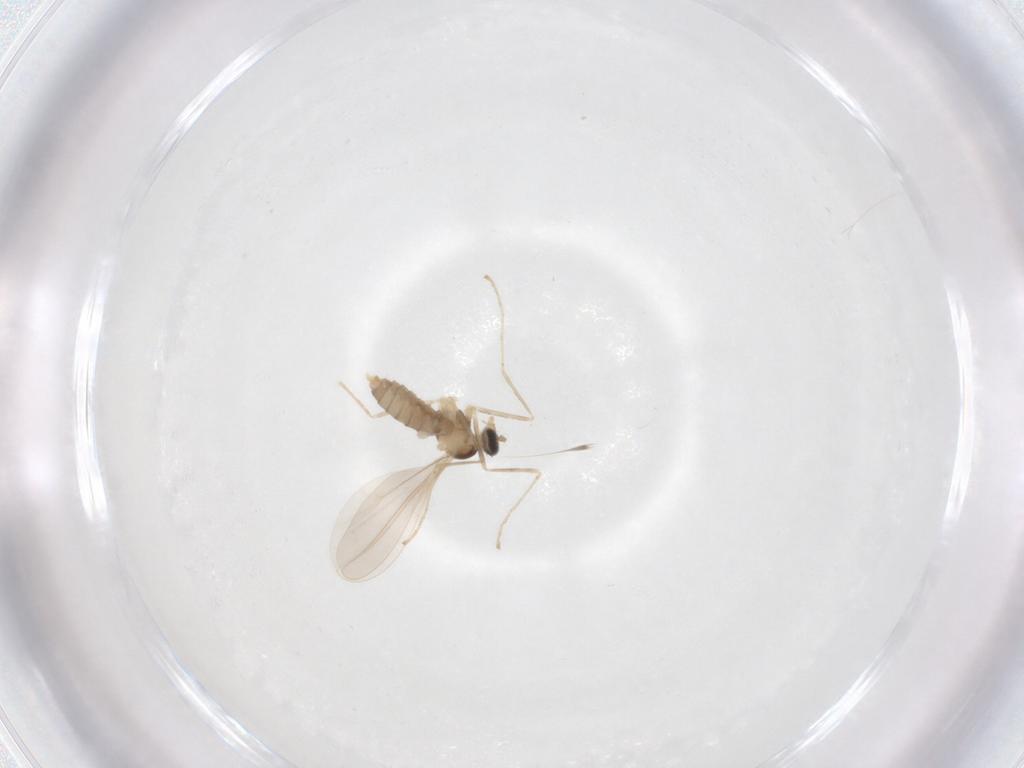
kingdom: Animalia
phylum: Arthropoda
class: Insecta
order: Diptera
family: Cecidomyiidae
